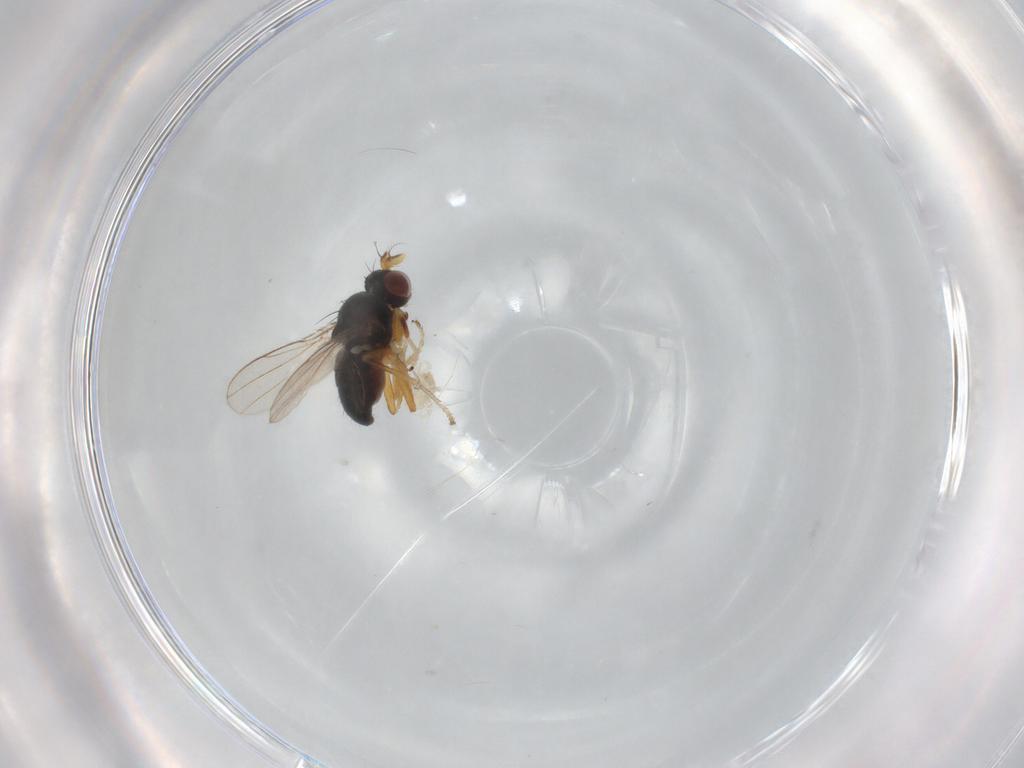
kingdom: Animalia
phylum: Arthropoda
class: Insecta
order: Diptera
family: Ephydridae
